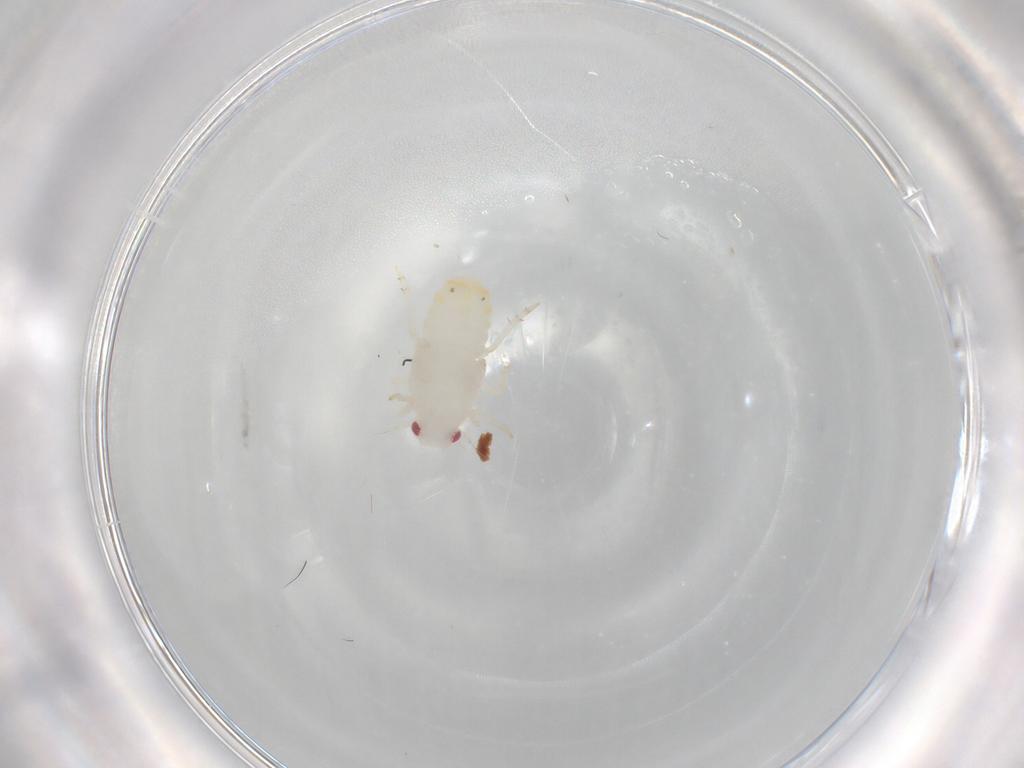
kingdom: Animalia
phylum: Arthropoda
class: Insecta
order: Hemiptera
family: Flatidae
